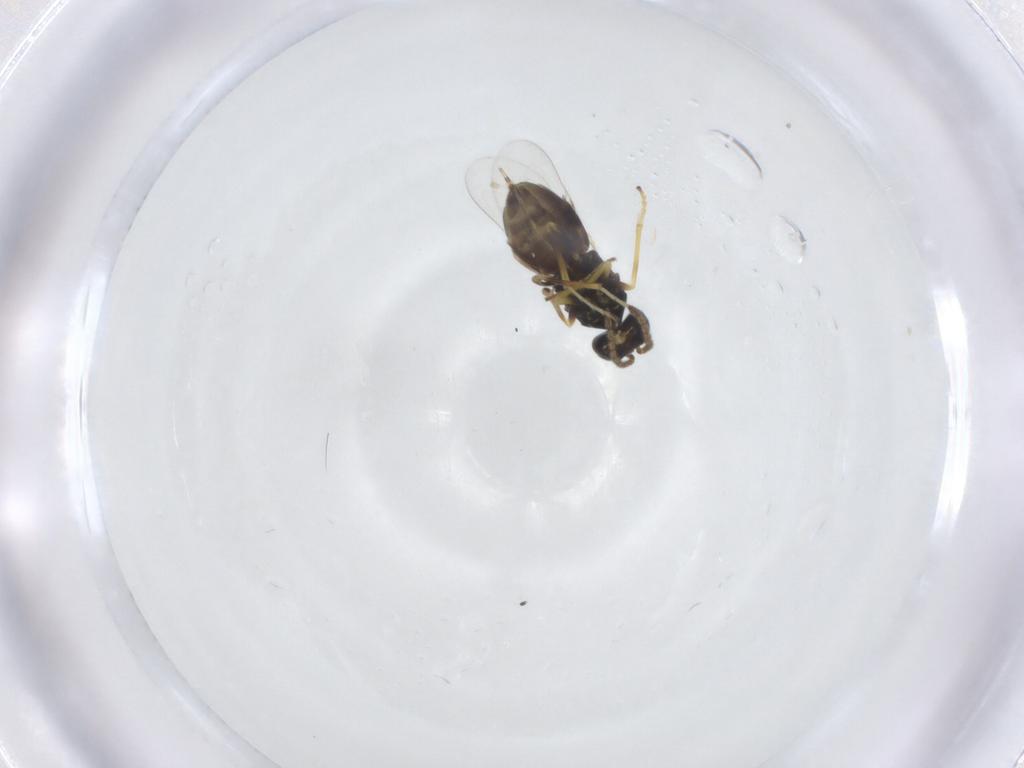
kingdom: Animalia
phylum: Arthropoda
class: Insecta
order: Hymenoptera
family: Encyrtidae
